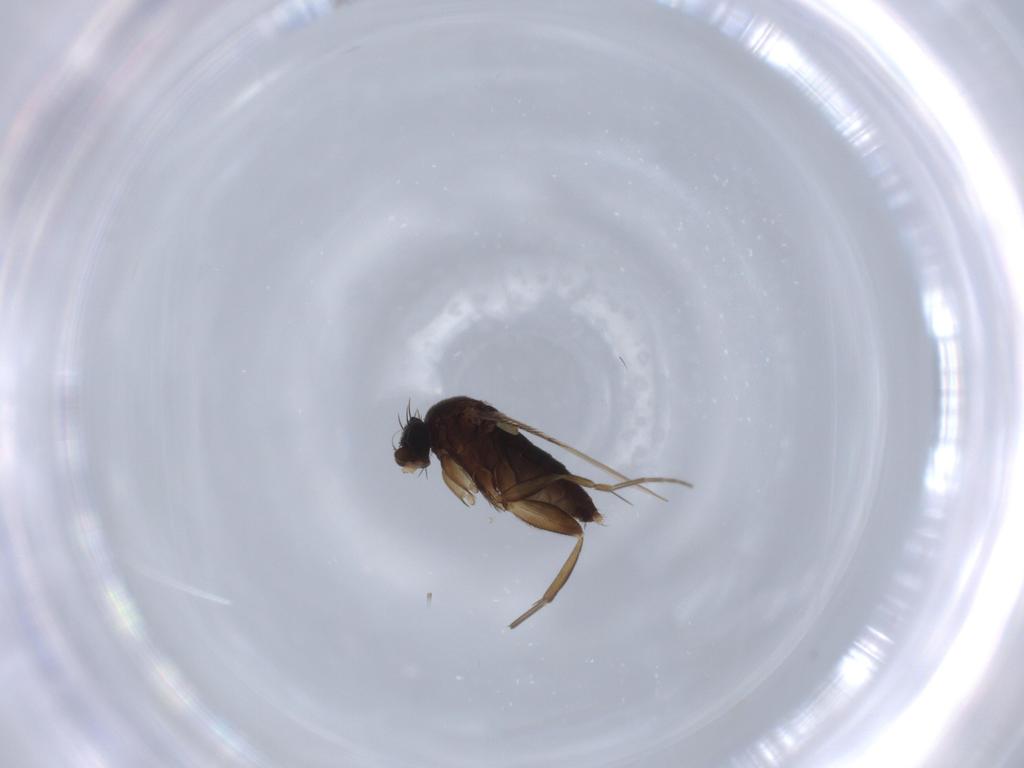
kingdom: Animalia
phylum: Arthropoda
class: Insecta
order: Diptera
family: Phoridae
